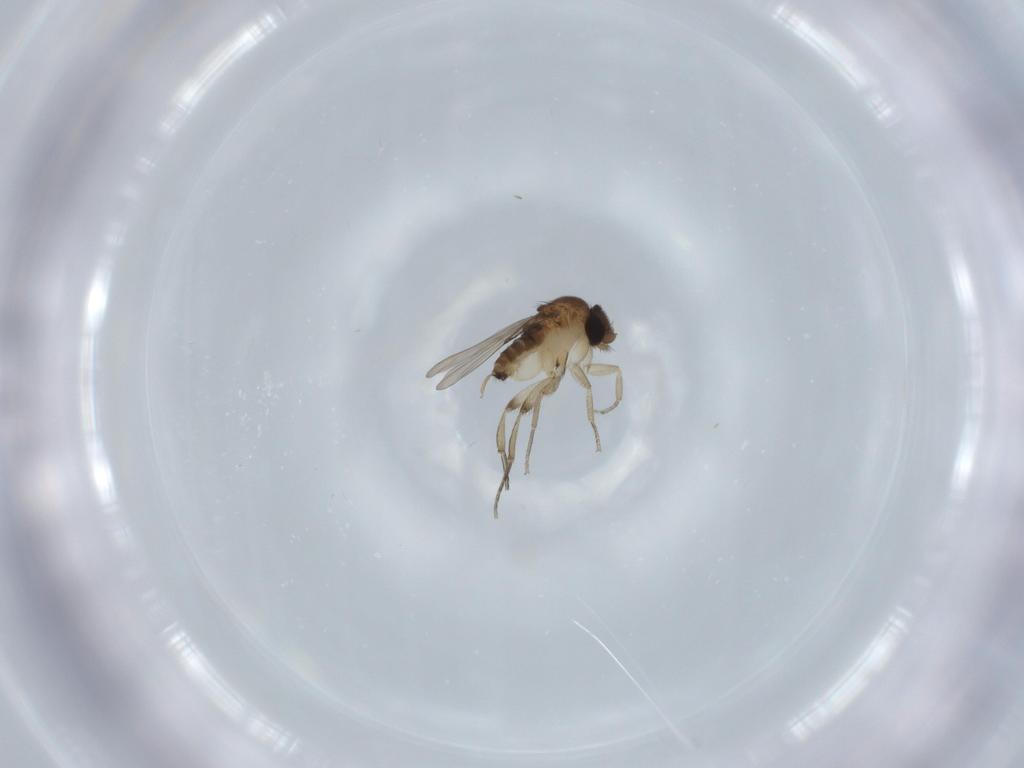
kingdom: Animalia
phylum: Arthropoda
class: Insecta
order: Diptera
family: Phoridae
